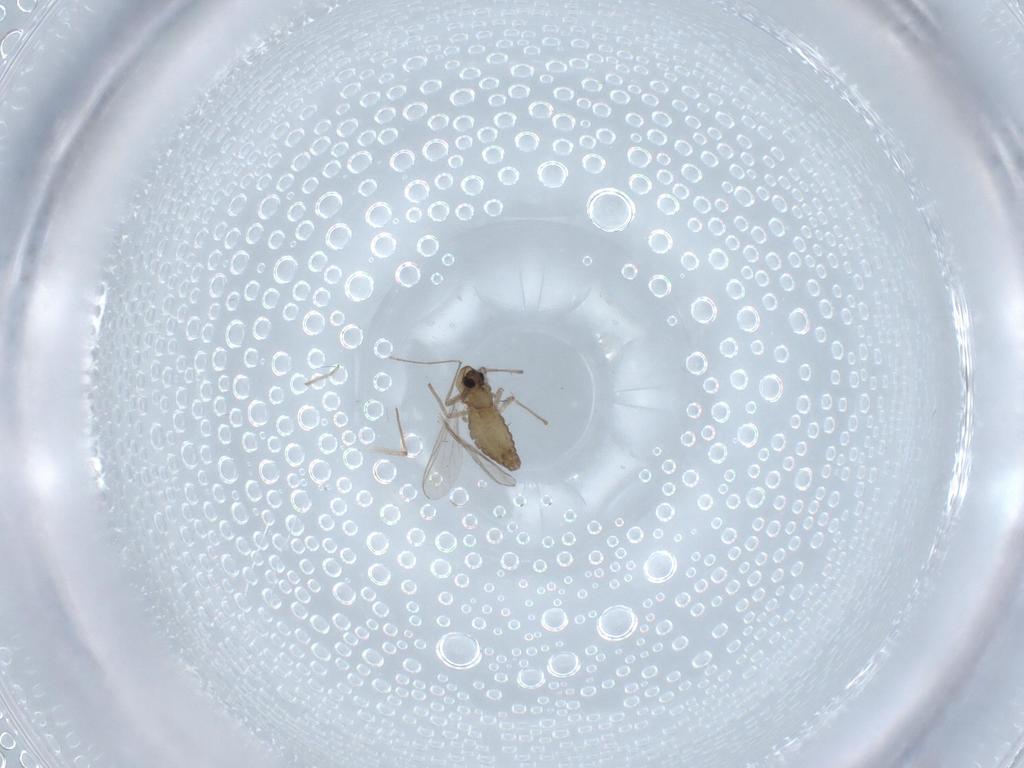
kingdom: Animalia
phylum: Arthropoda
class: Insecta
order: Diptera
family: Chironomidae
